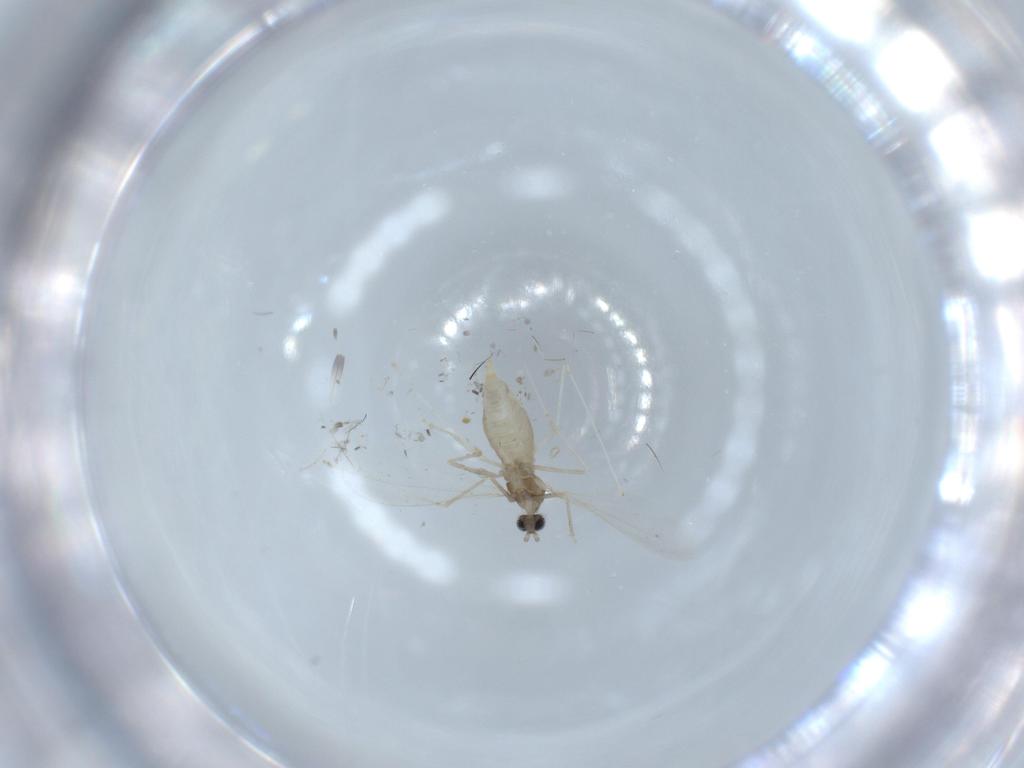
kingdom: Animalia
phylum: Arthropoda
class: Insecta
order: Diptera
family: Cecidomyiidae
